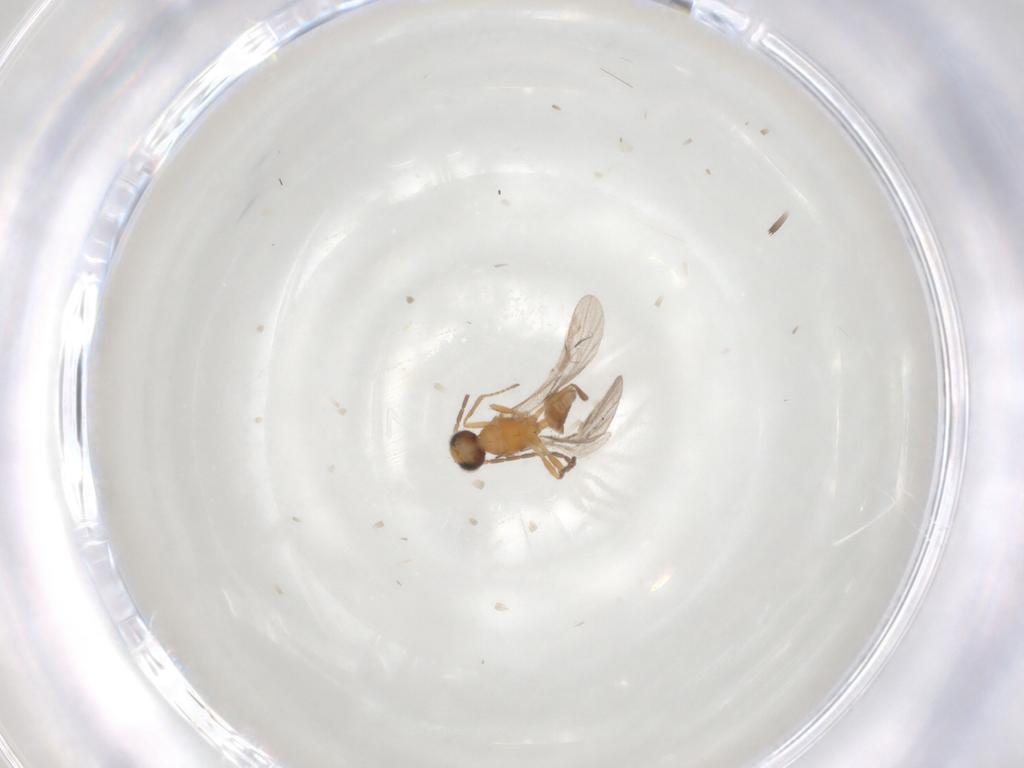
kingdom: Animalia
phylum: Arthropoda
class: Insecta
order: Hymenoptera
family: Braconidae
